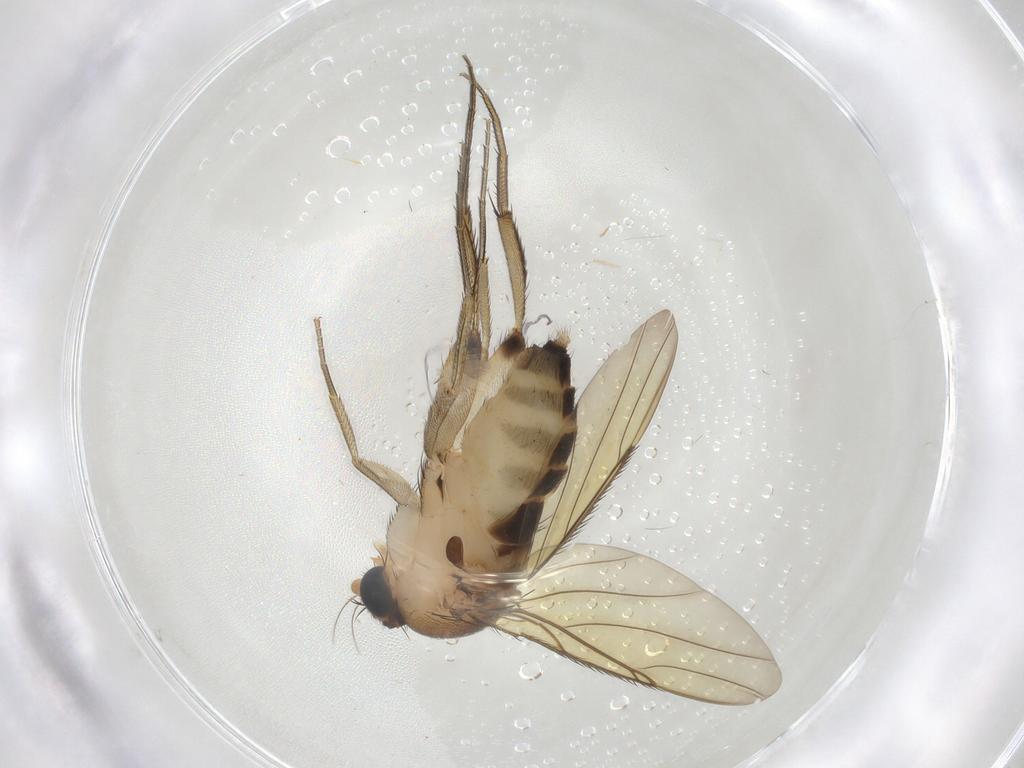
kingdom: Animalia
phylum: Arthropoda
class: Insecta
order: Diptera
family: Phoridae
